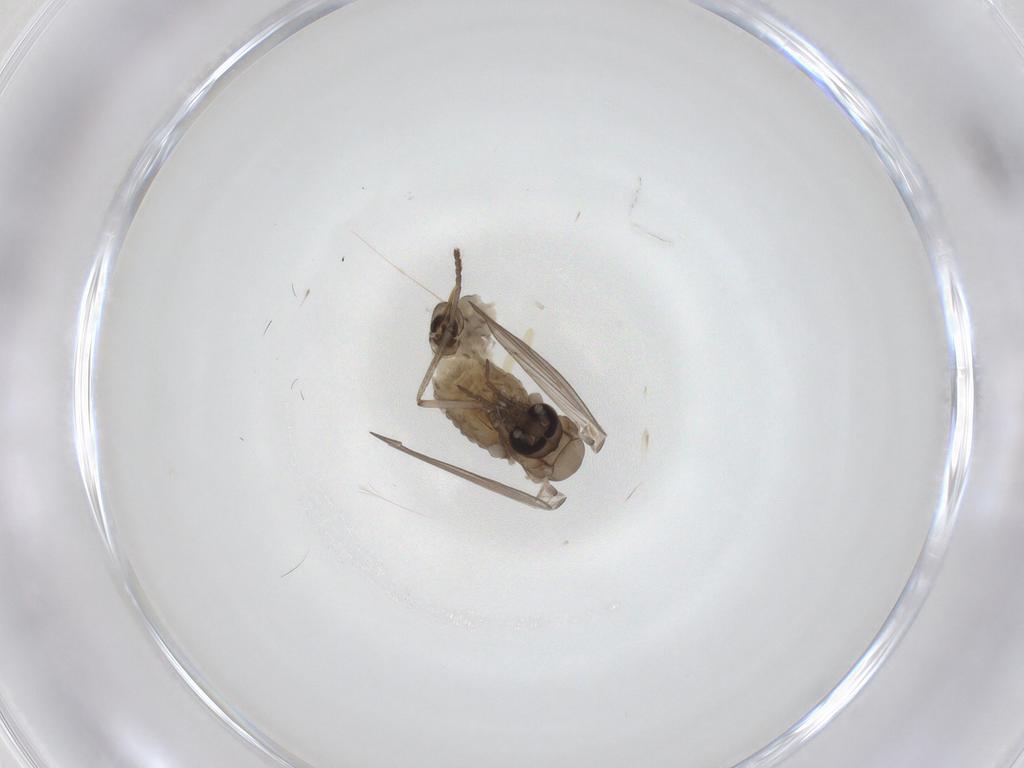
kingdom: Animalia
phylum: Arthropoda
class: Insecta
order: Diptera
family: Psychodidae
